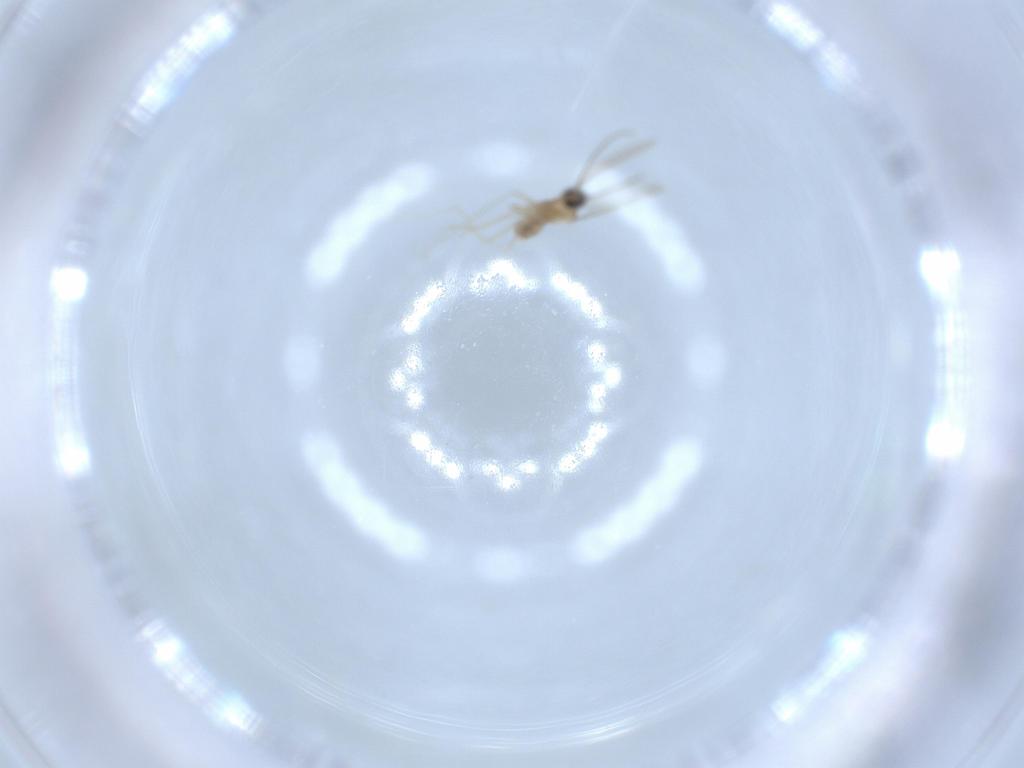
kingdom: Animalia
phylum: Arthropoda
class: Insecta
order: Diptera
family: Cecidomyiidae
